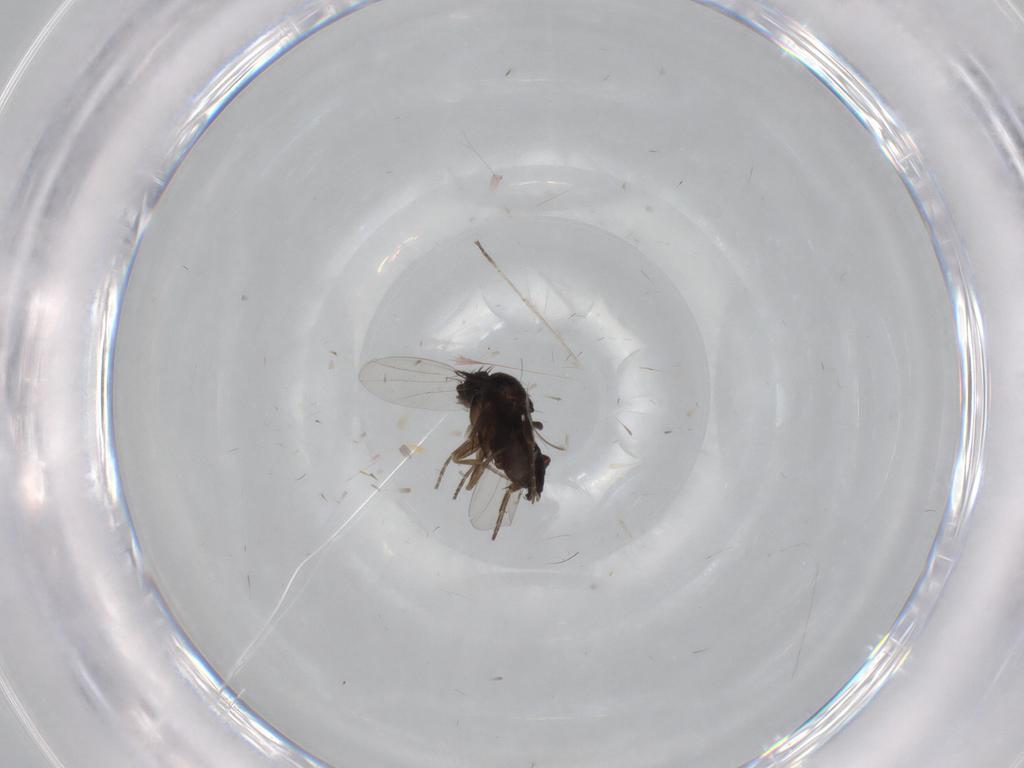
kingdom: Animalia
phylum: Arthropoda
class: Insecta
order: Diptera
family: Phoridae
